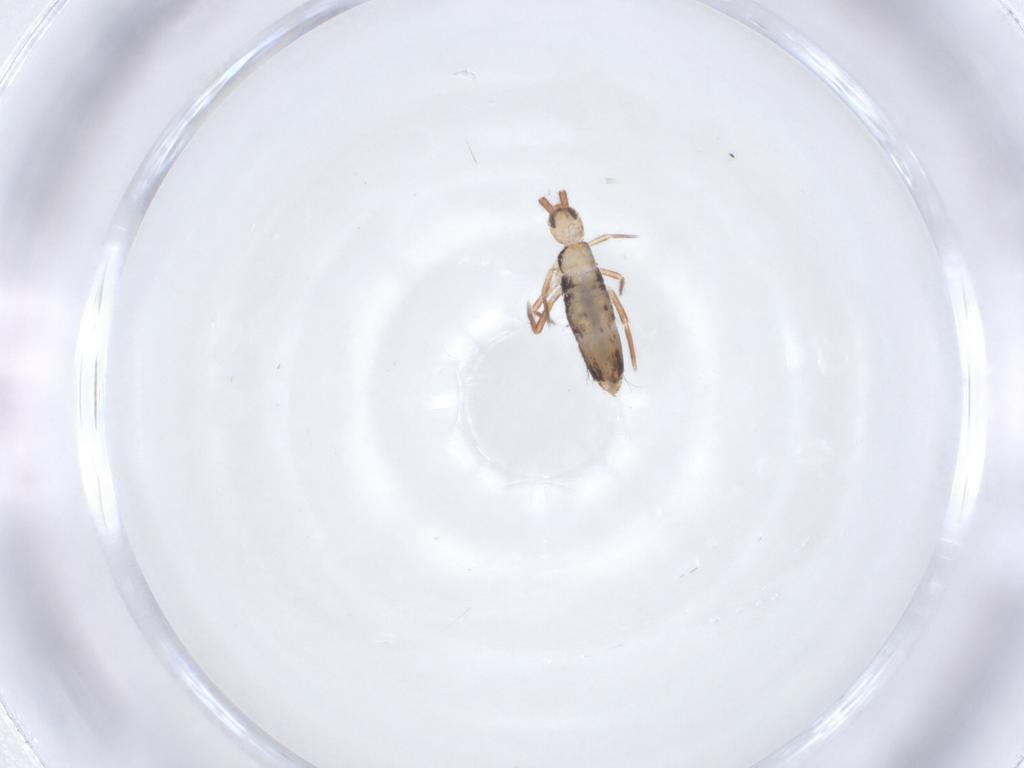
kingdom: Animalia
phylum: Arthropoda
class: Collembola
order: Entomobryomorpha
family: Entomobryidae
